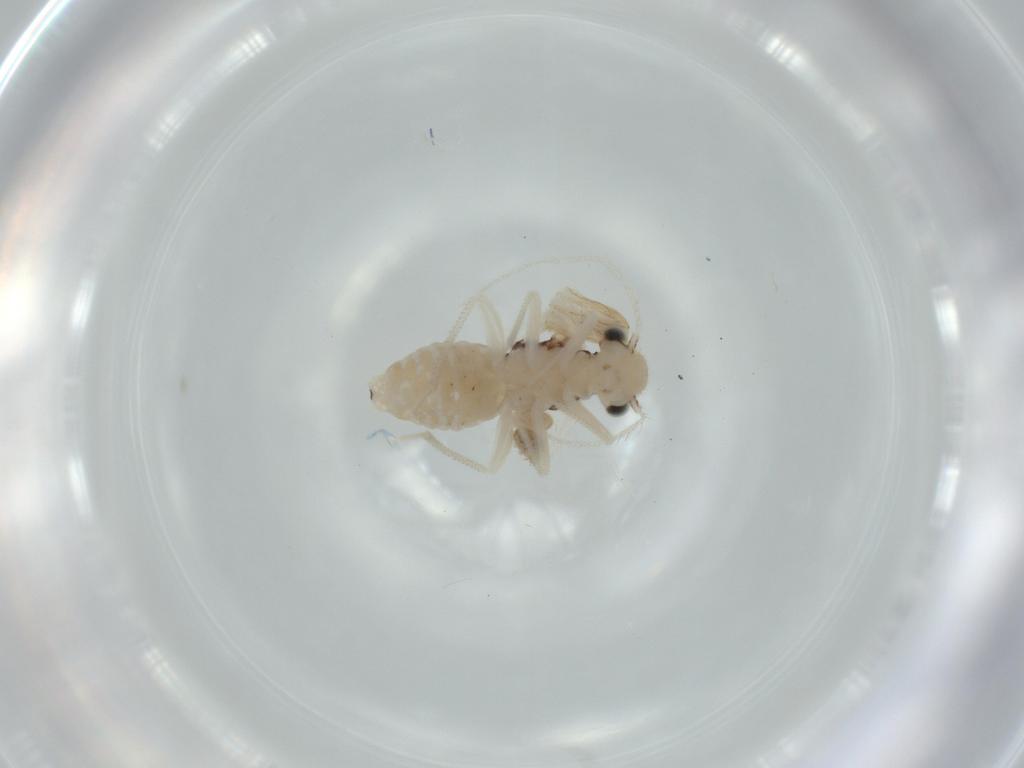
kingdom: Animalia
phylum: Arthropoda
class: Insecta
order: Psocodea
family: Pseudocaeciliidae
